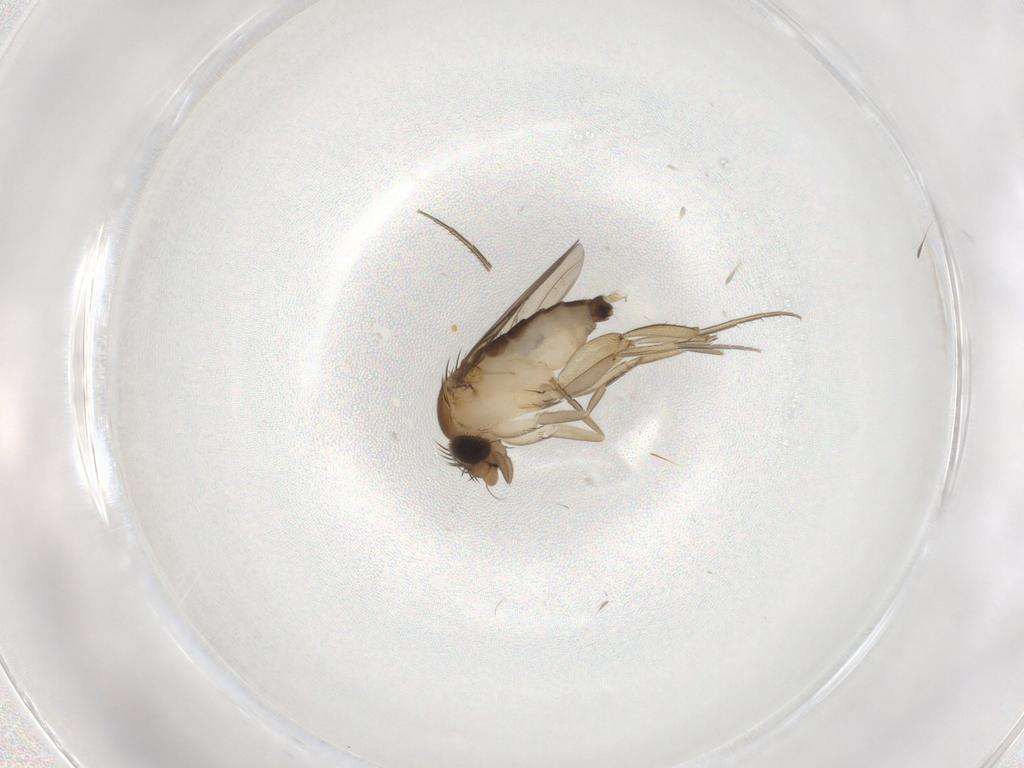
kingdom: Animalia
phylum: Arthropoda
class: Insecta
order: Diptera
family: Phoridae
